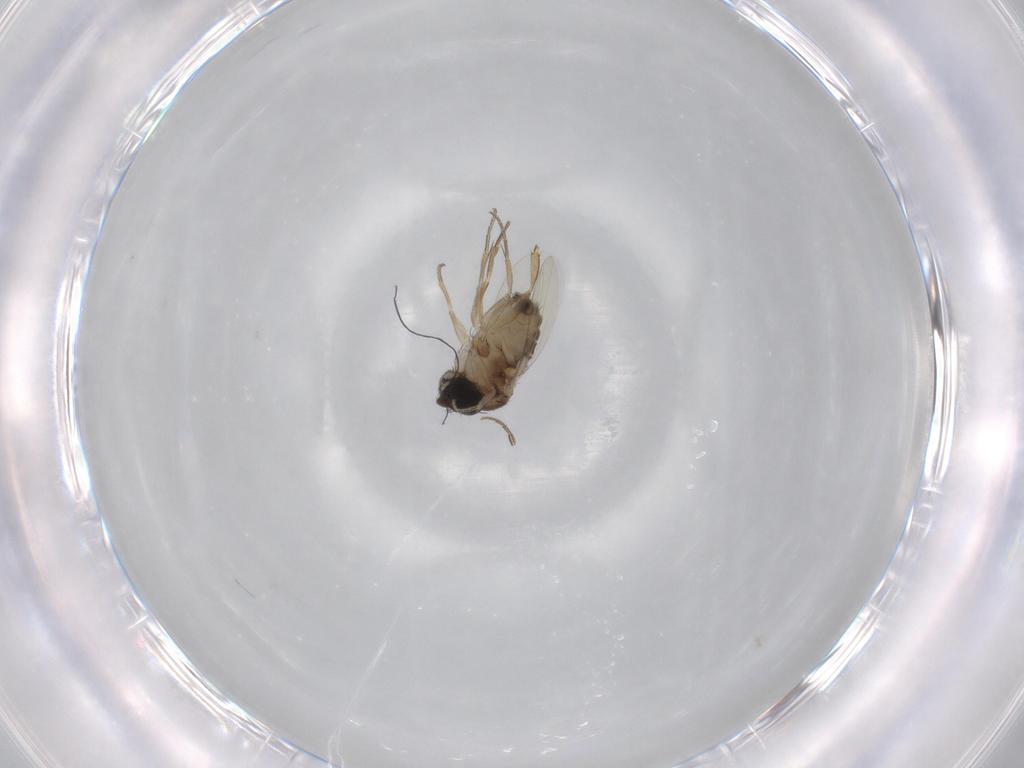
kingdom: Animalia
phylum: Arthropoda
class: Insecta
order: Diptera
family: Phoridae
